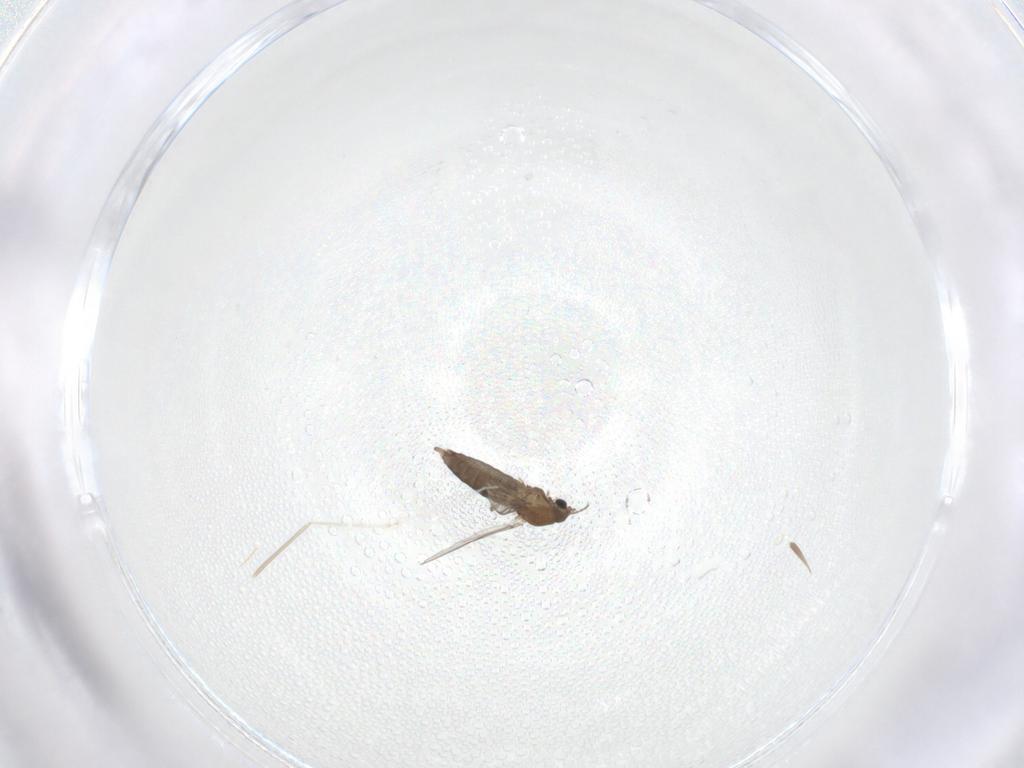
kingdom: Animalia
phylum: Arthropoda
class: Insecta
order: Diptera
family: Chironomidae
